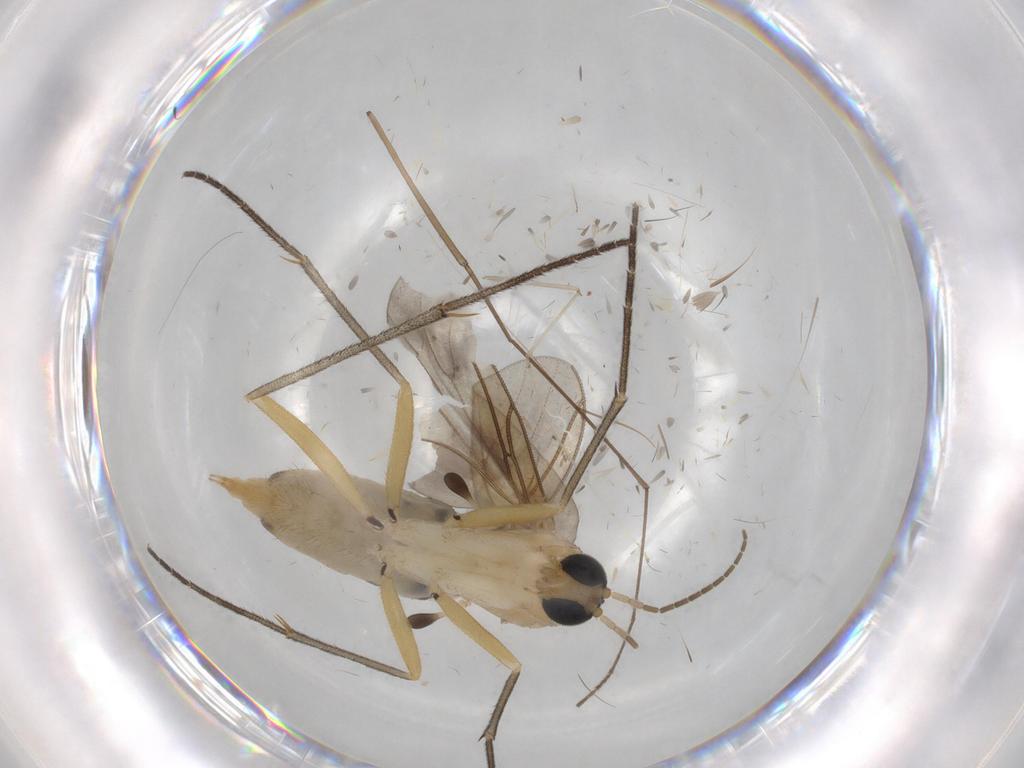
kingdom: Animalia
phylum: Arthropoda
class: Insecta
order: Diptera
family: Sciaridae
